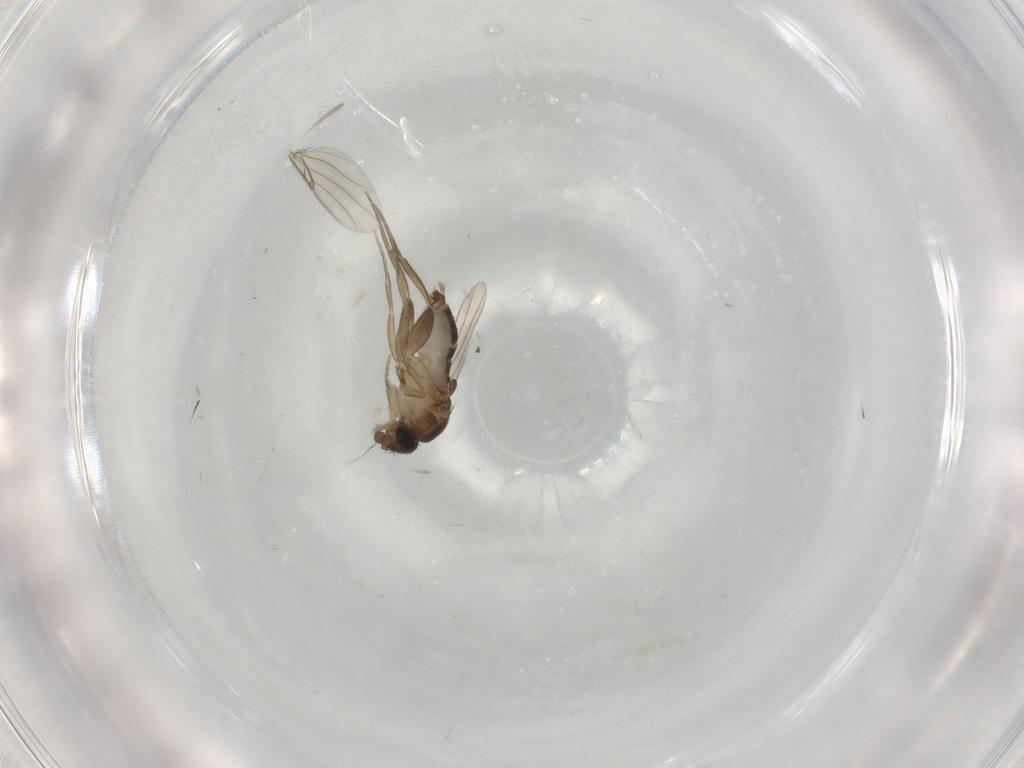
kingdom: Animalia
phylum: Arthropoda
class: Insecta
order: Diptera
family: Phoridae
